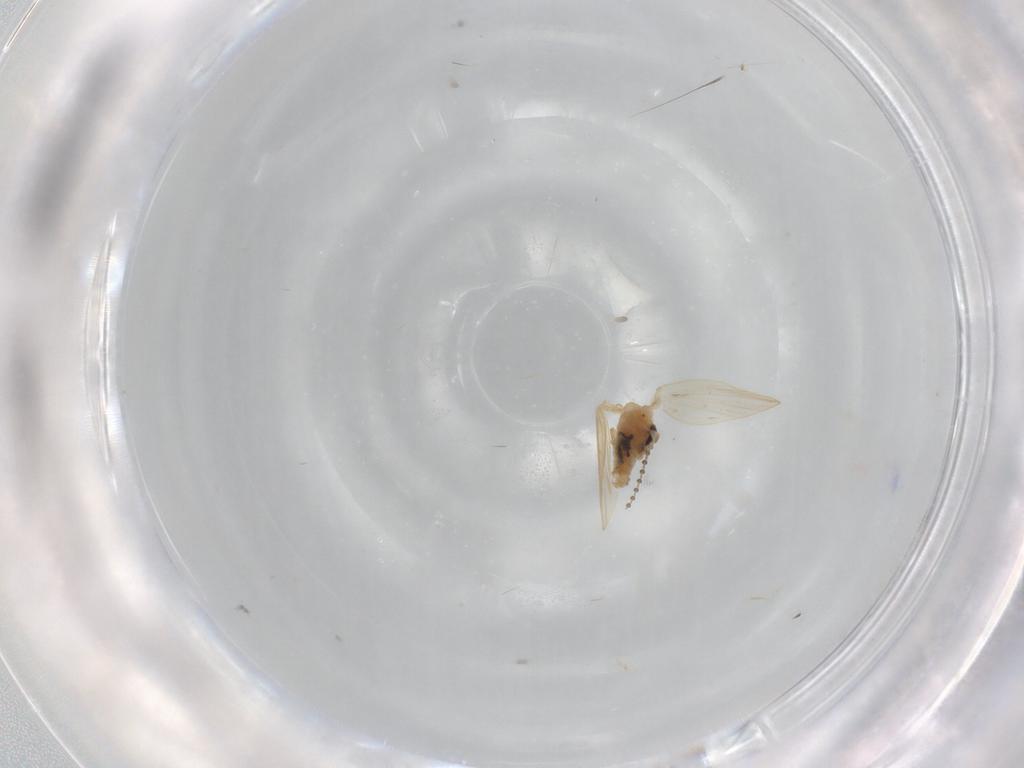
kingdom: Animalia
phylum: Arthropoda
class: Insecta
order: Diptera
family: Psychodidae
